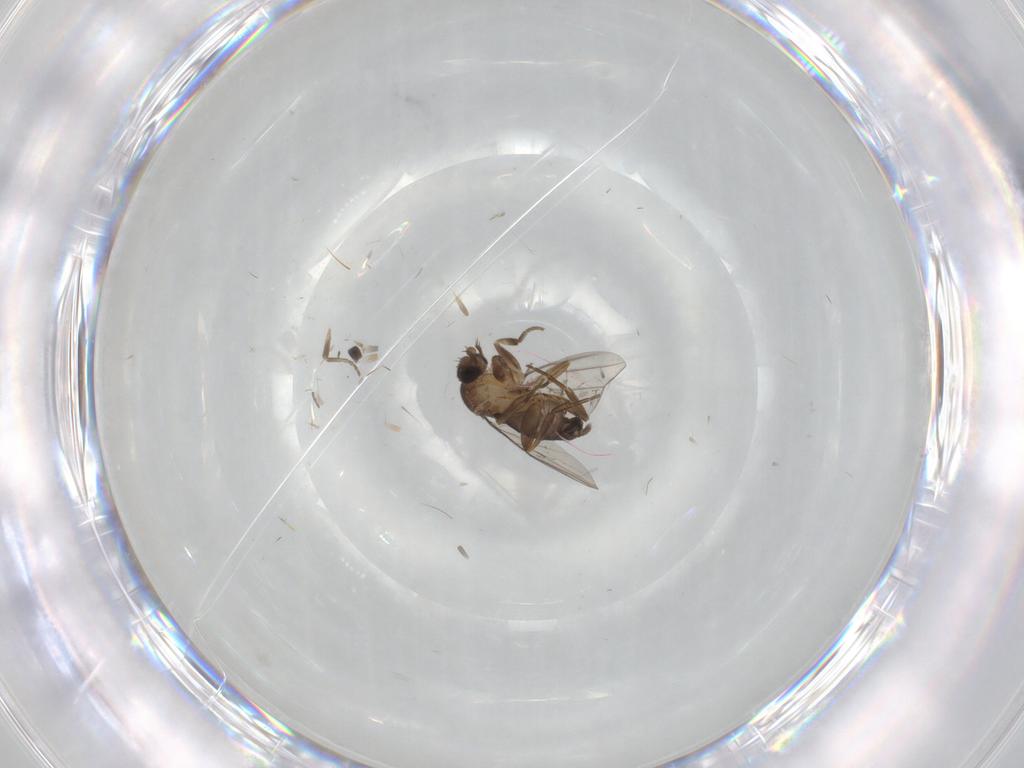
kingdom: Animalia
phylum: Arthropoda
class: Insecta
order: Diptera
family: Phoridae
